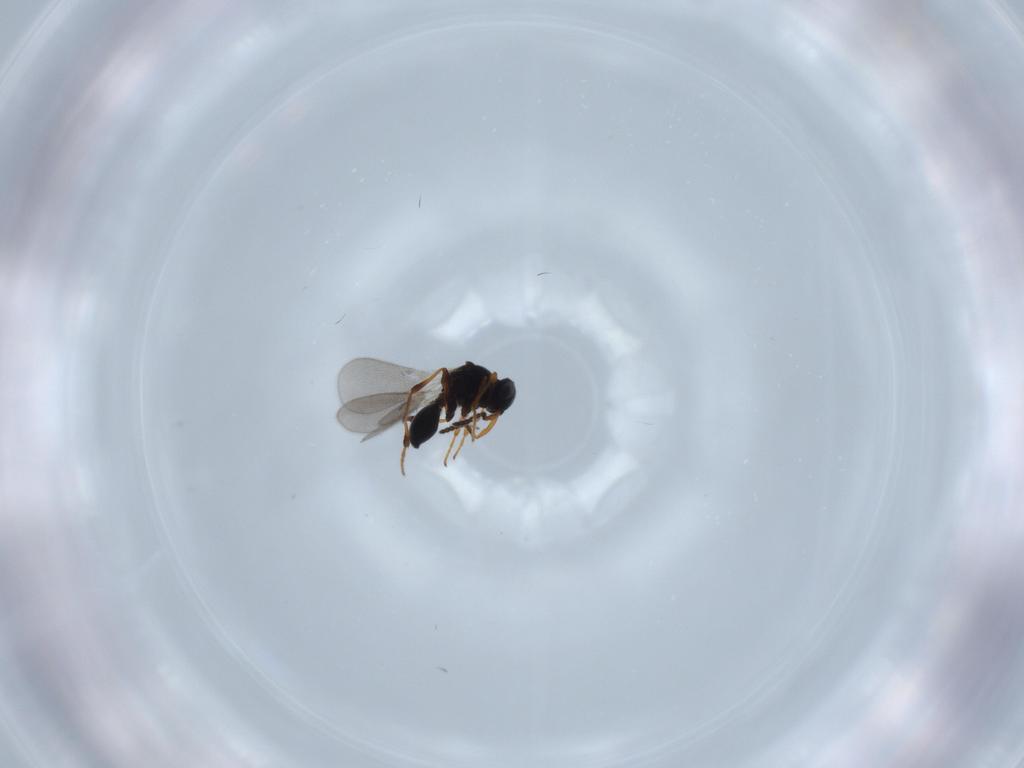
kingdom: Animalia
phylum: Arthropoda
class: Insecta
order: Hymenoptera
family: Platygastridae
